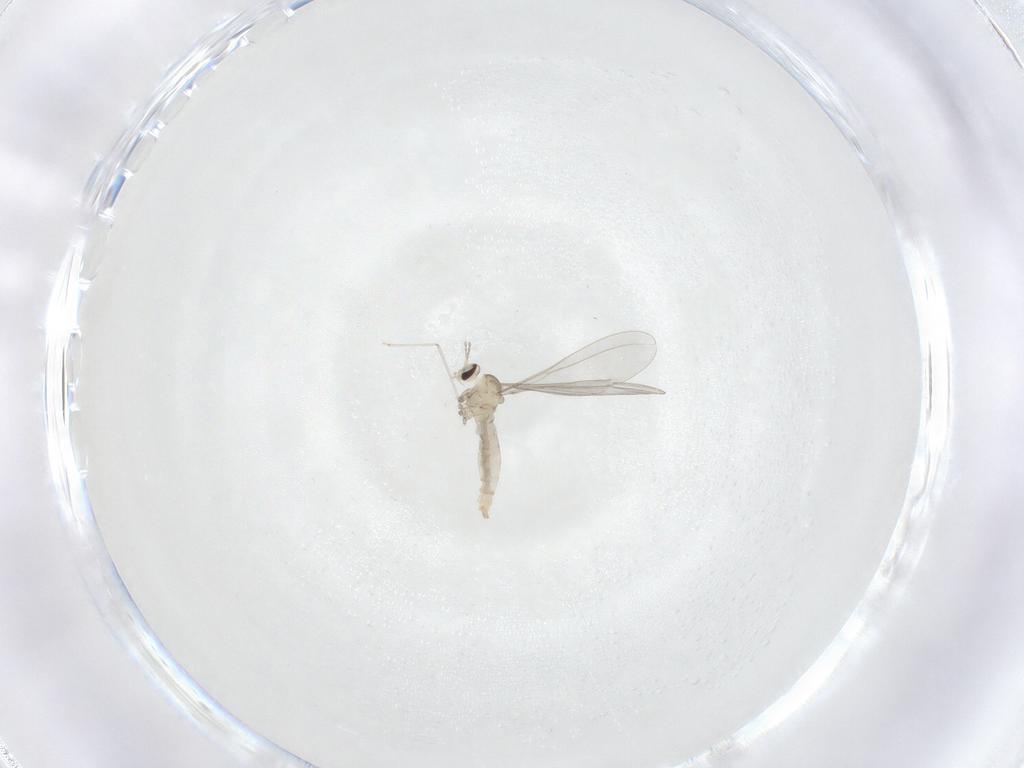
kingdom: Animalia
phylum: Arthropoda
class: Insecta
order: Diptera
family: Cecidomyiidae
